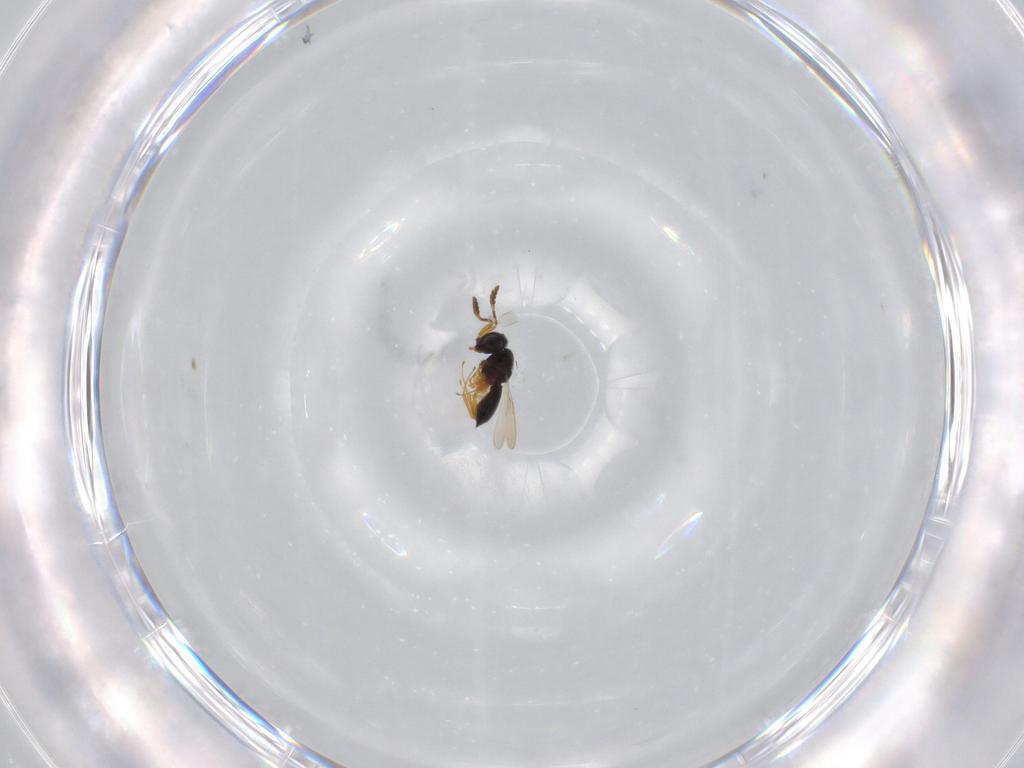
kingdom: Animalia
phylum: Arthropoda
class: Insecta
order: Hymenoptera
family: Scelionidae
